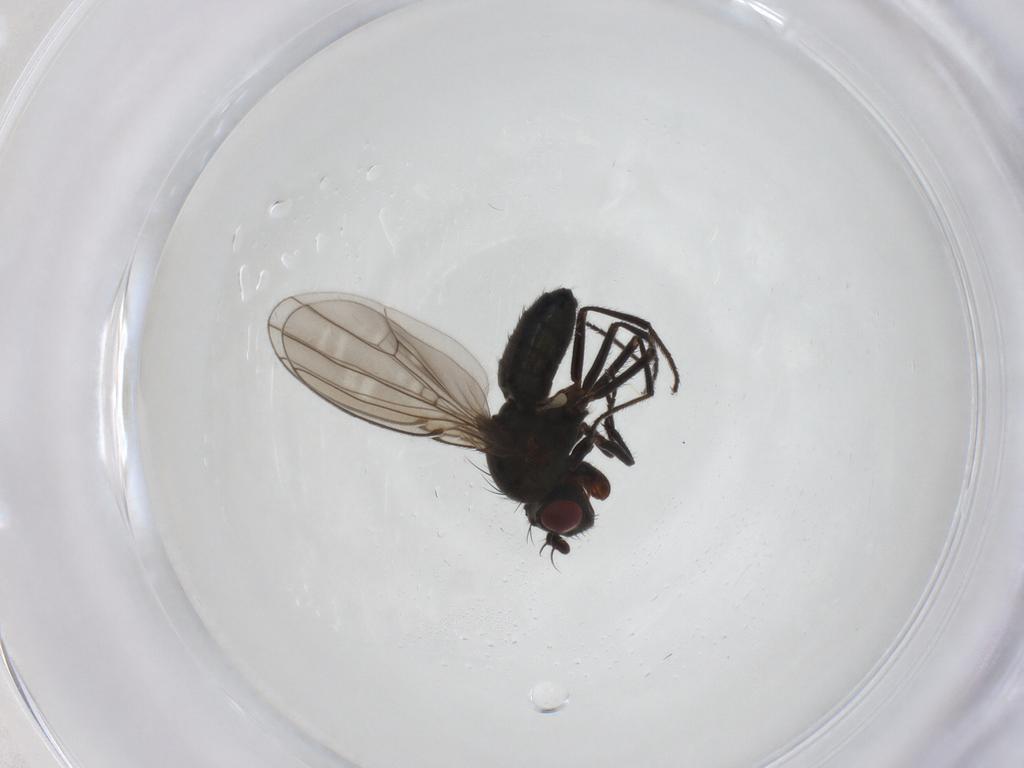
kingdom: Animalia
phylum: Arthropoda
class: Insecta
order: Diptera
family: Ephydridae
